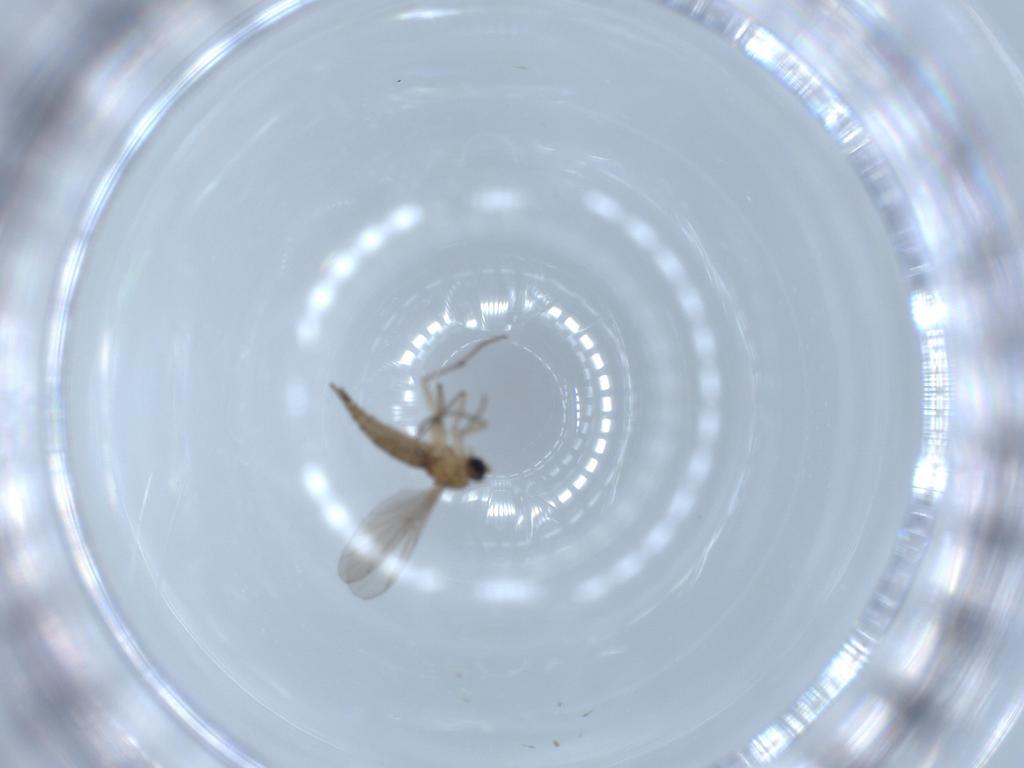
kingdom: Animalia
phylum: Arthropoda
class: Insecta
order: Diptera
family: Sciaridae
